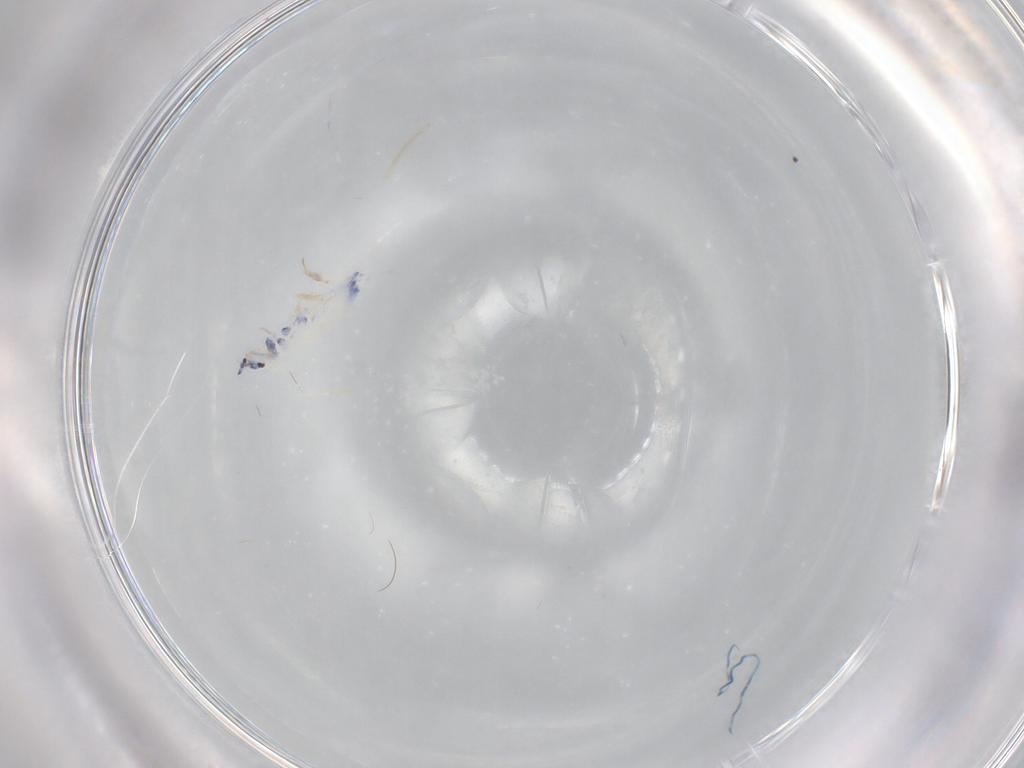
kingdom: Animalia
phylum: Arthropoda
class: Collembola
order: Entomobryomorpha
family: Entomobryidae
